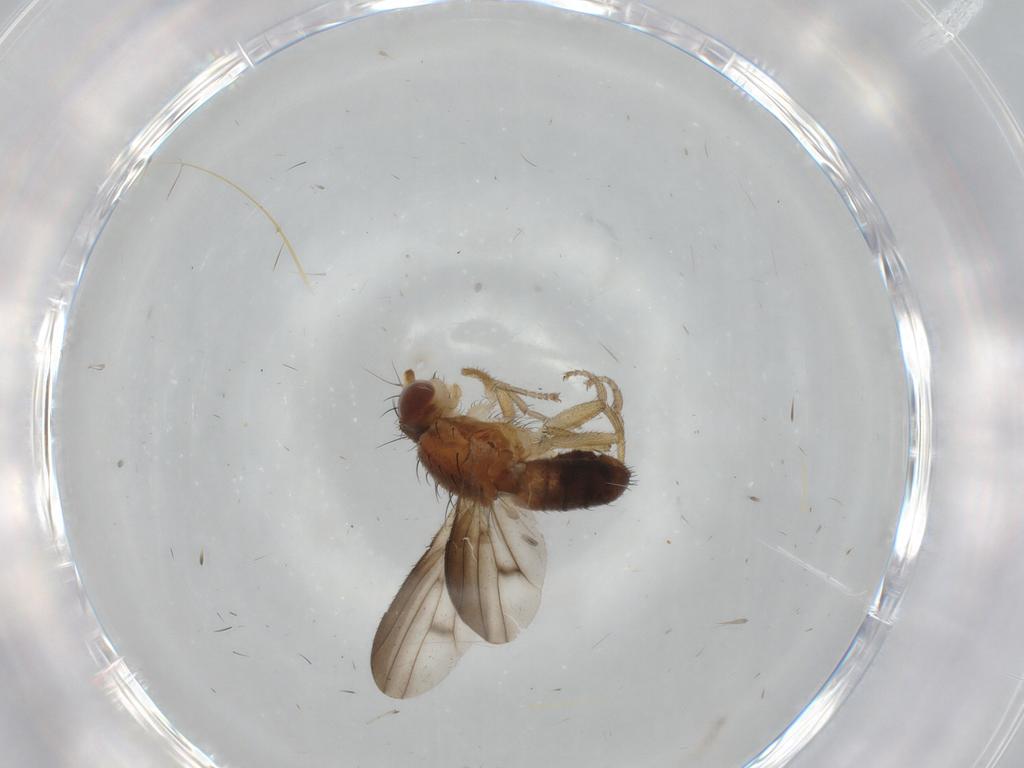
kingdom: Animalia
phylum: Arthropoda
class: Insecta
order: Diptera
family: Heleomyzidae
